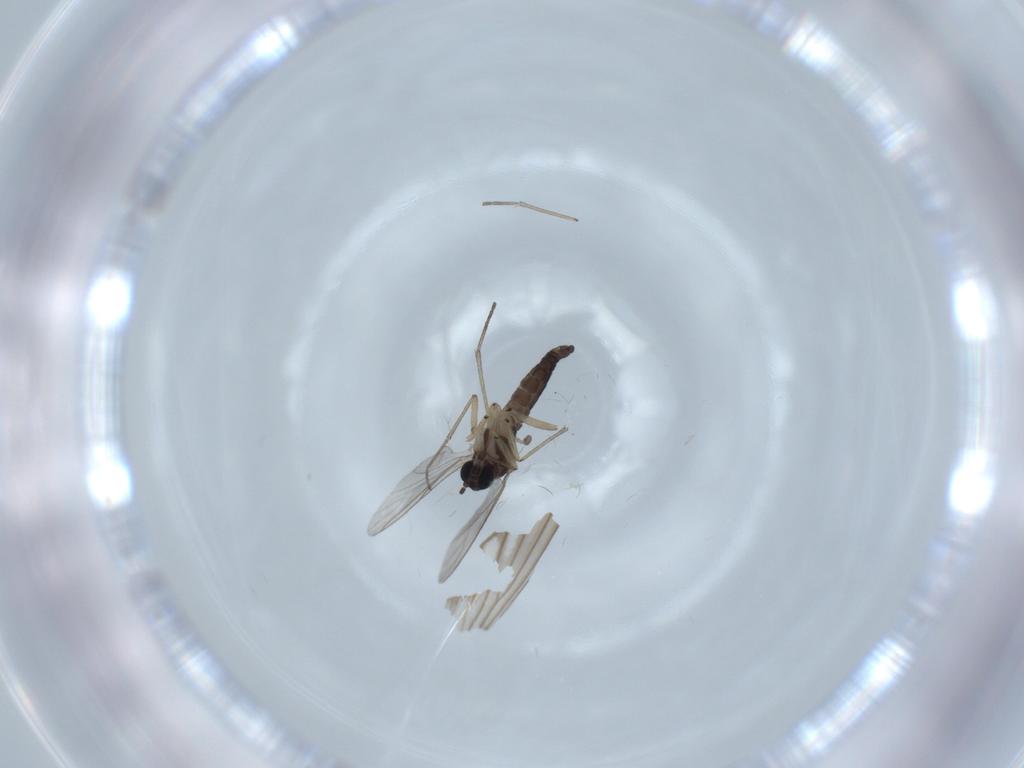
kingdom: Animalia
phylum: Arthropoda
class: Insecta
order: Diptera
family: Sciaridae
